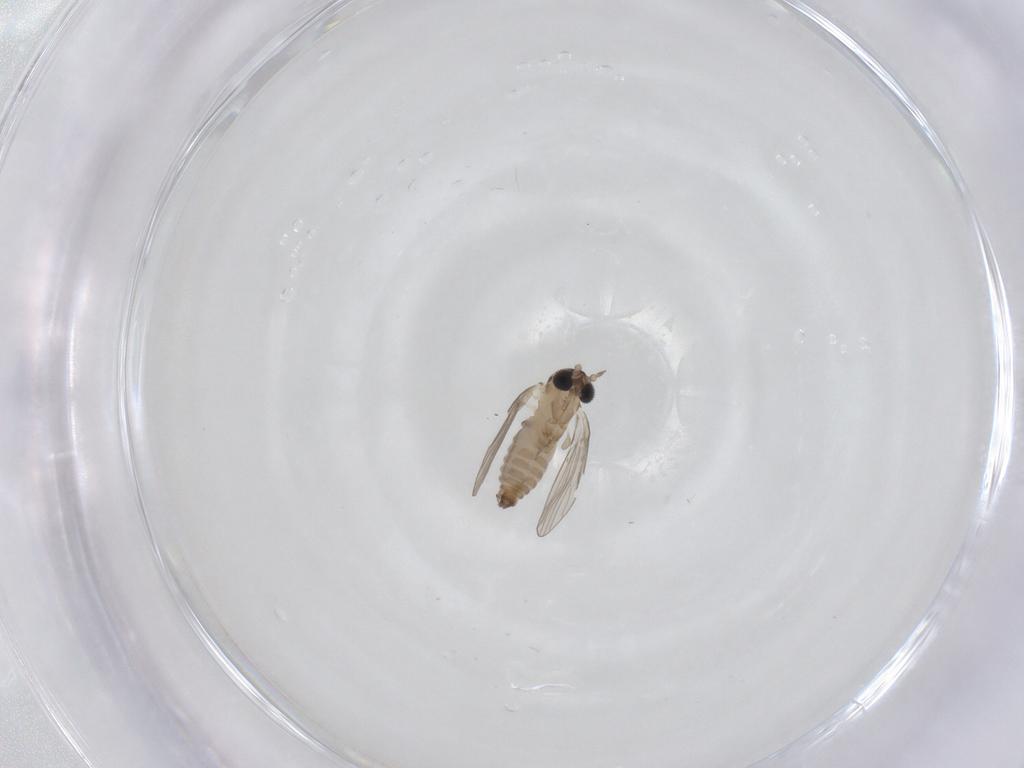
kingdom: Animalia
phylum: Arthropoda
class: Insecta
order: Diptera
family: Psychodidae
